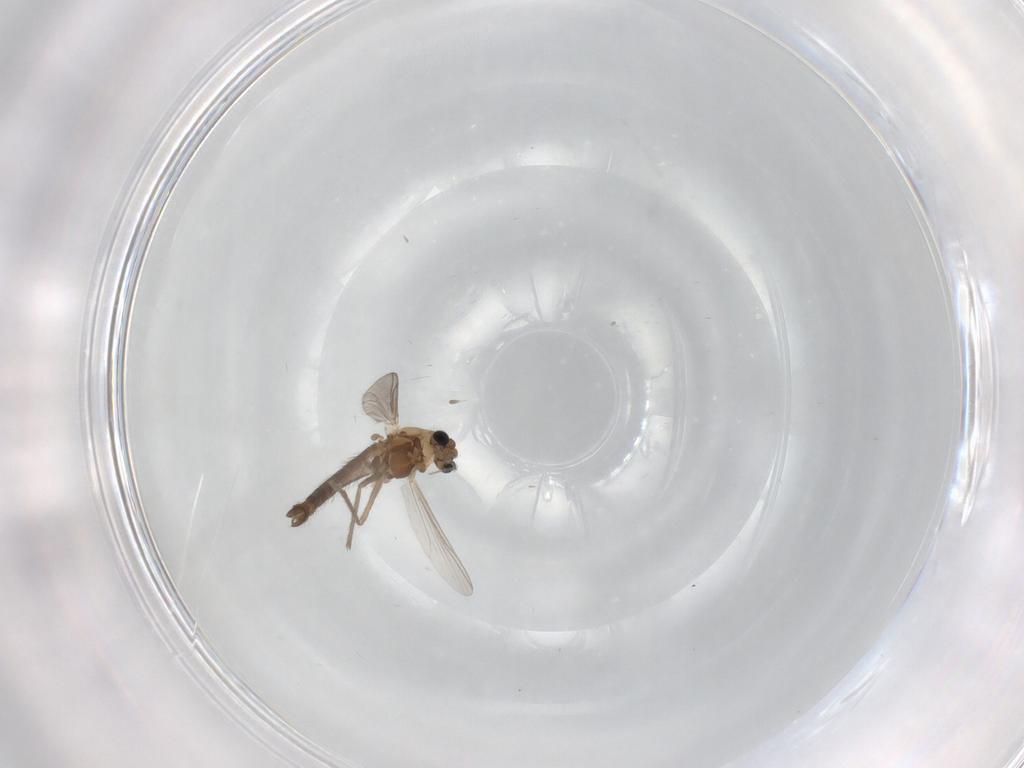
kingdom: Animalia
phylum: Arthropoda
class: Insecta
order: Diptera
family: Chironomidae
